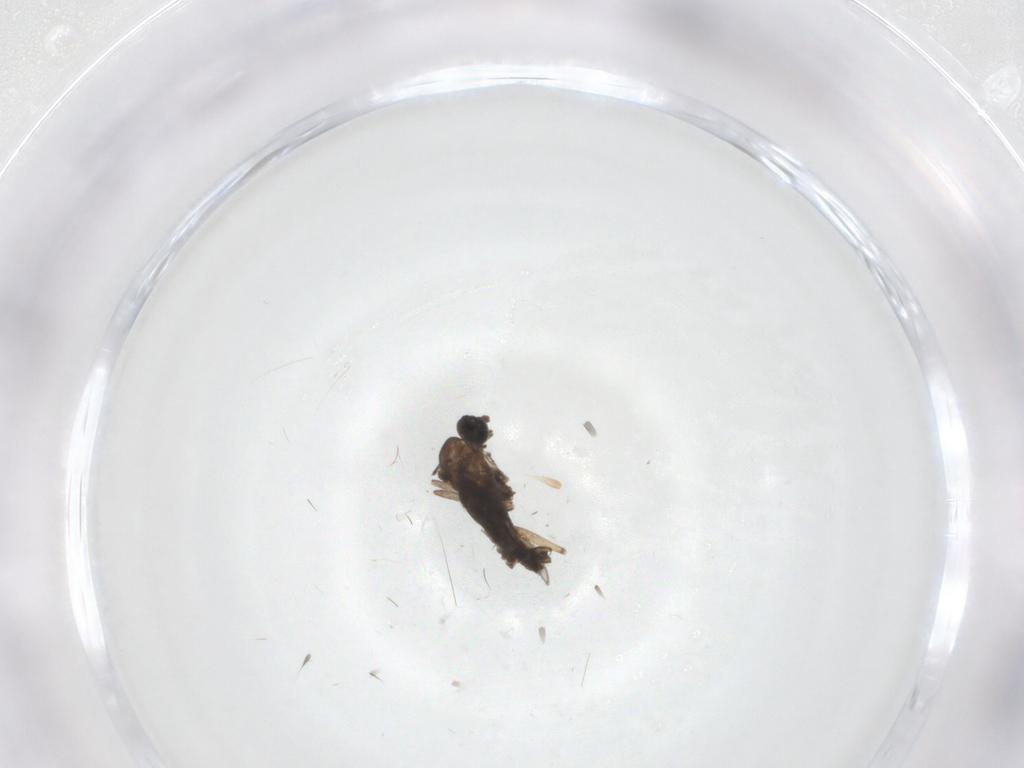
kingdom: Animalia
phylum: Arthropoda
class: Insecta
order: Diptera
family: Cecidomyiidae
